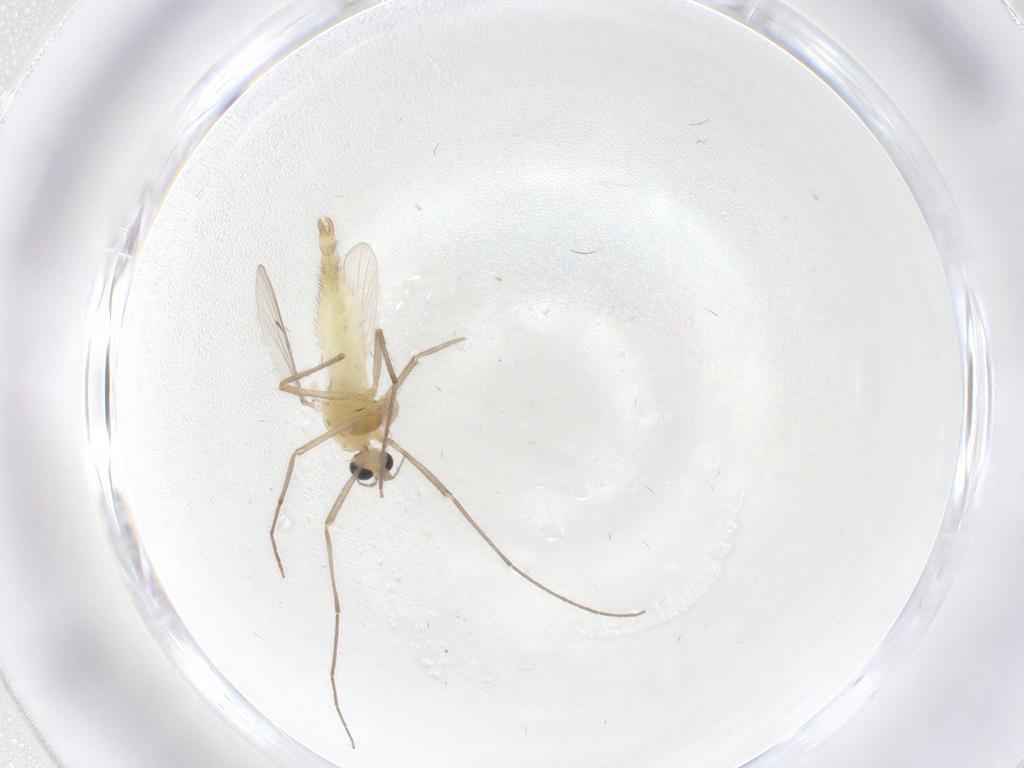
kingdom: Animalia
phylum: Arthropoda
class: Insecta
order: Diptera
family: Chironomidae
